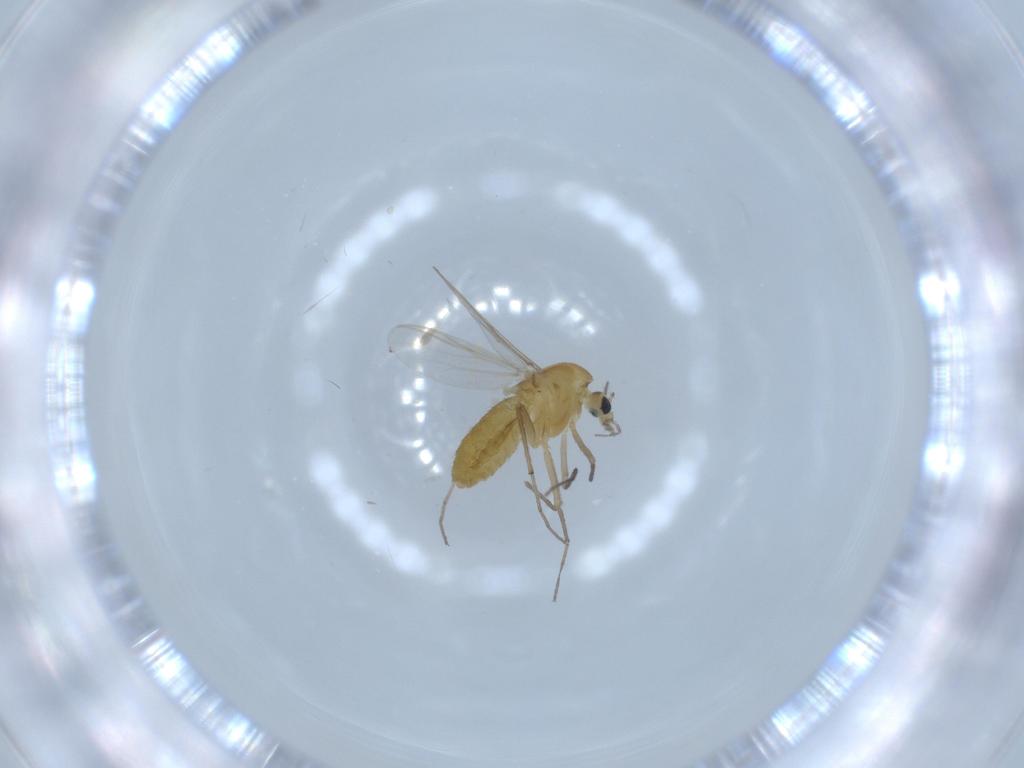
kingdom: Animalia
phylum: Arthropoda
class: Insecta
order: Diptera
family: Chironomidae
